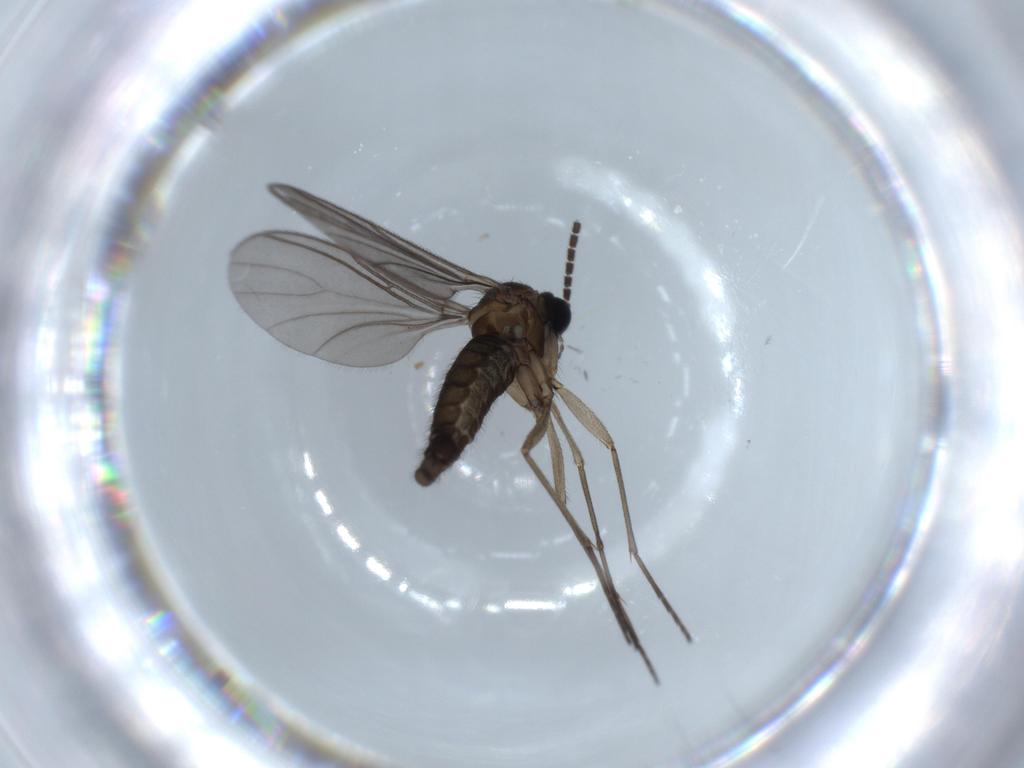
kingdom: Animalia
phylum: Arthropoda
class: Insecta
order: Diptera
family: Sciaridae
